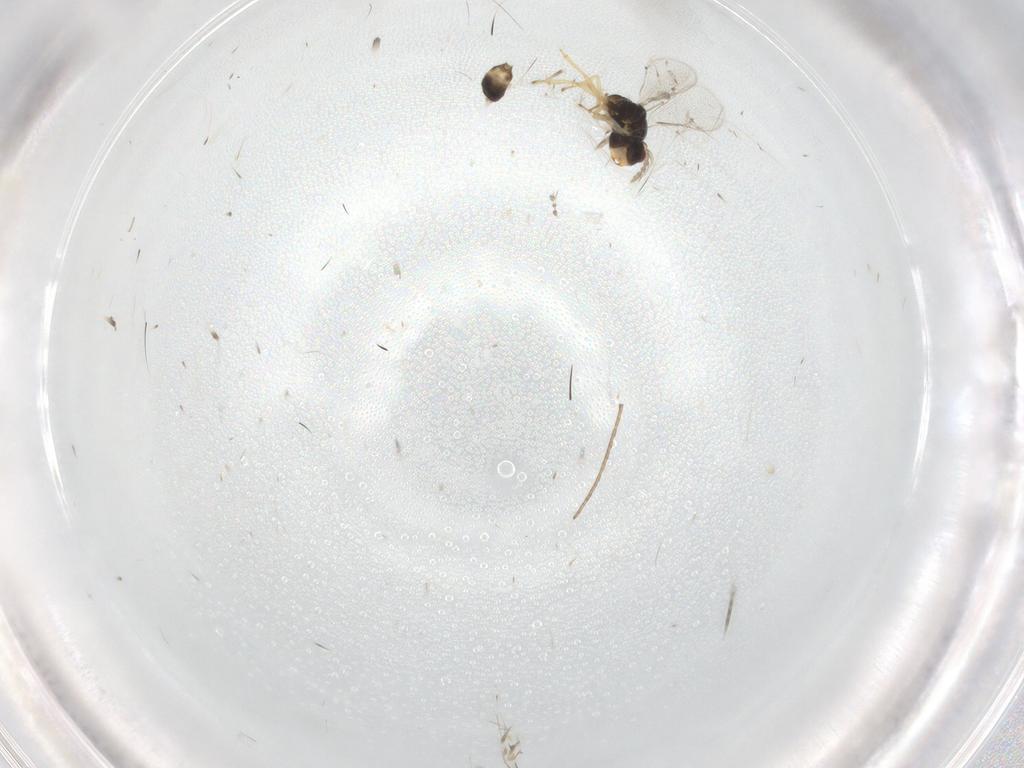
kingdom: Animalia
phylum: Arthropoda
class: Insecta
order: Hymenoptera
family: Eulophidae
